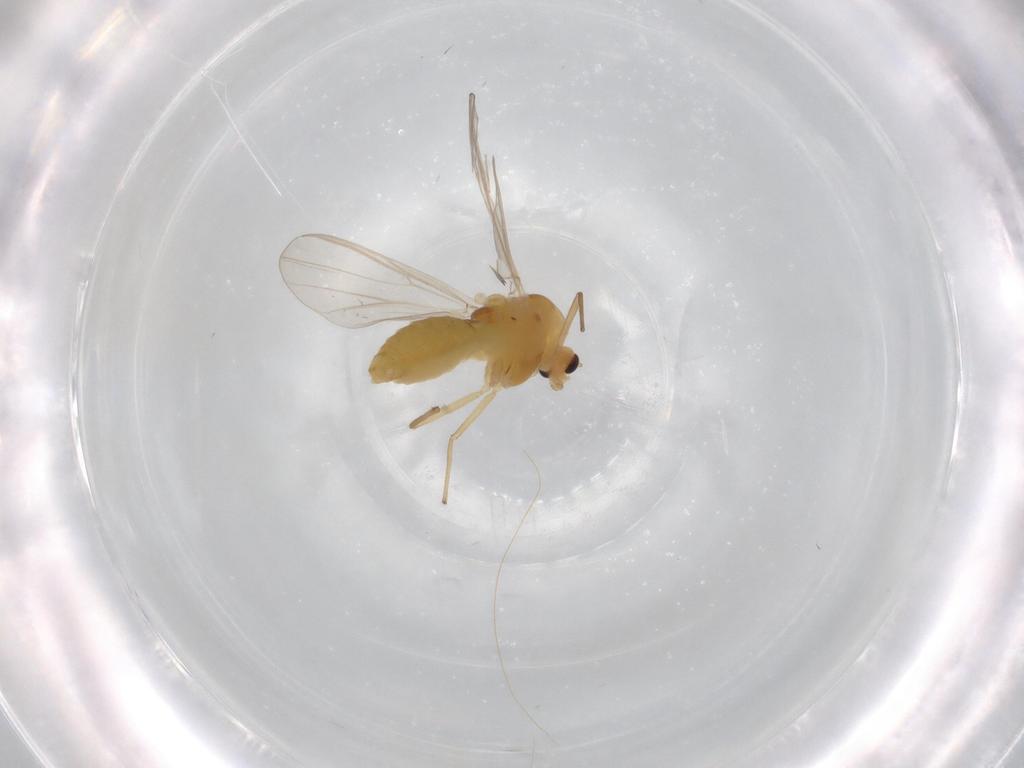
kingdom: Animalia
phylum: Arthropoda
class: Insecta
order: Diptera
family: Chironomidae
